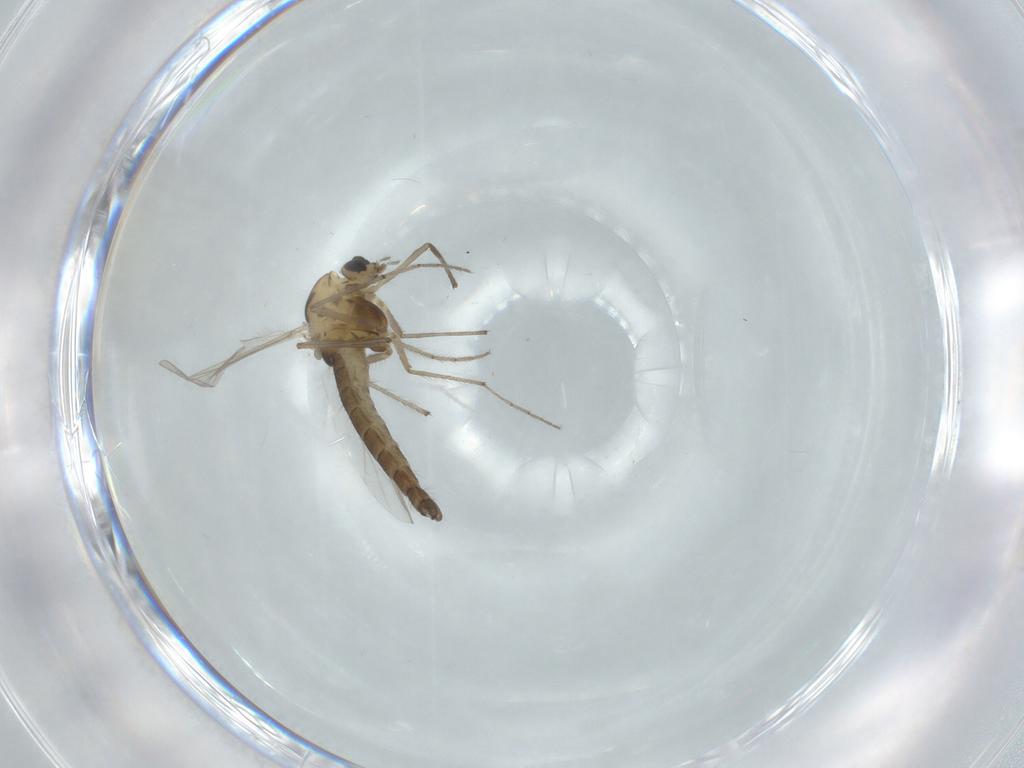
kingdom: Animalia
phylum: Arthropoda
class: Insecta
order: Diptera
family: Chironomidae
